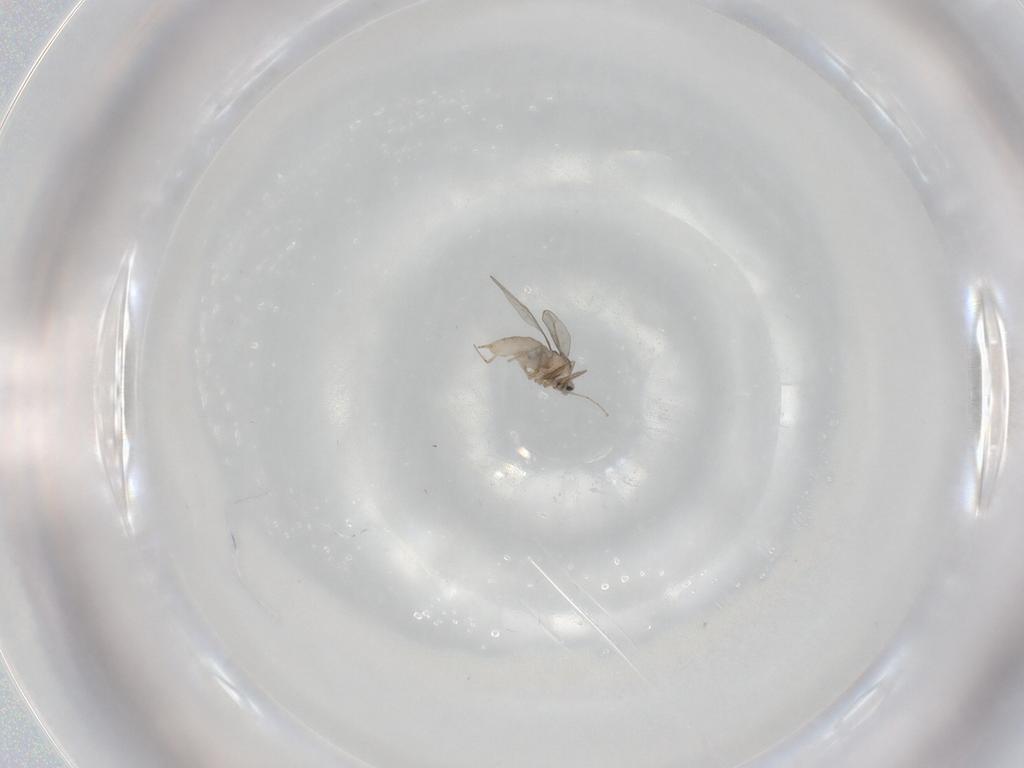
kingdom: Animalia
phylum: Arthropoda
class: Insecta
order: Diptera
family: Cecidomyiidae
